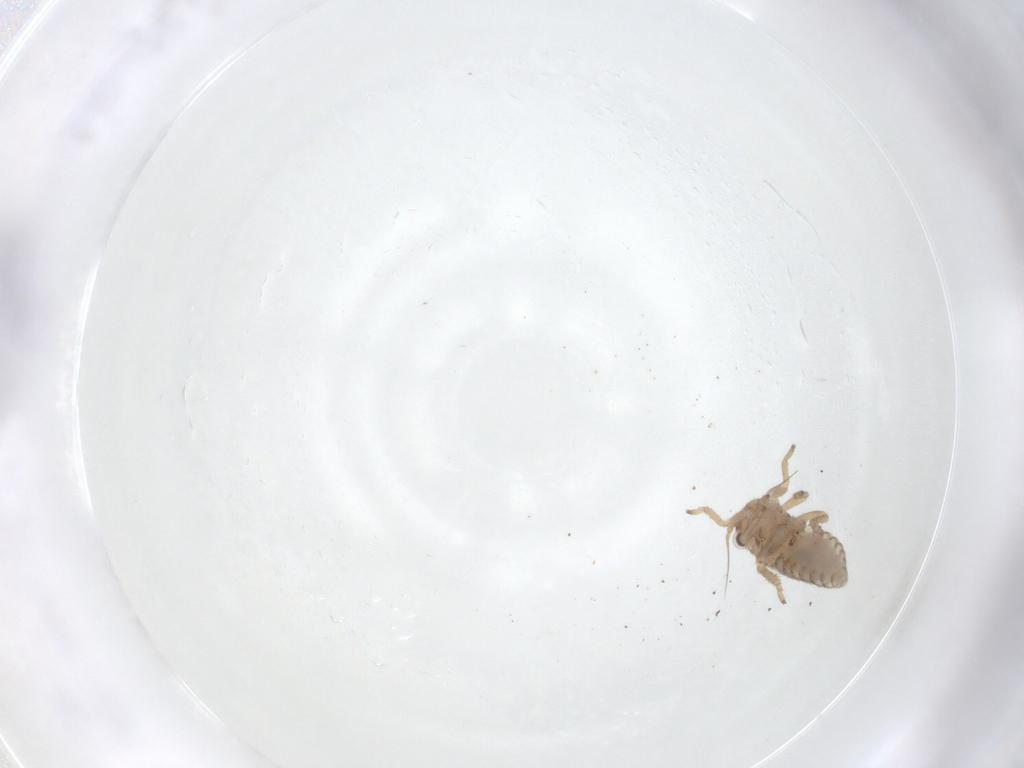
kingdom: Animalia
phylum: Arthropoda
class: Insecta
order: Hemiptera
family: Cicadellidae
